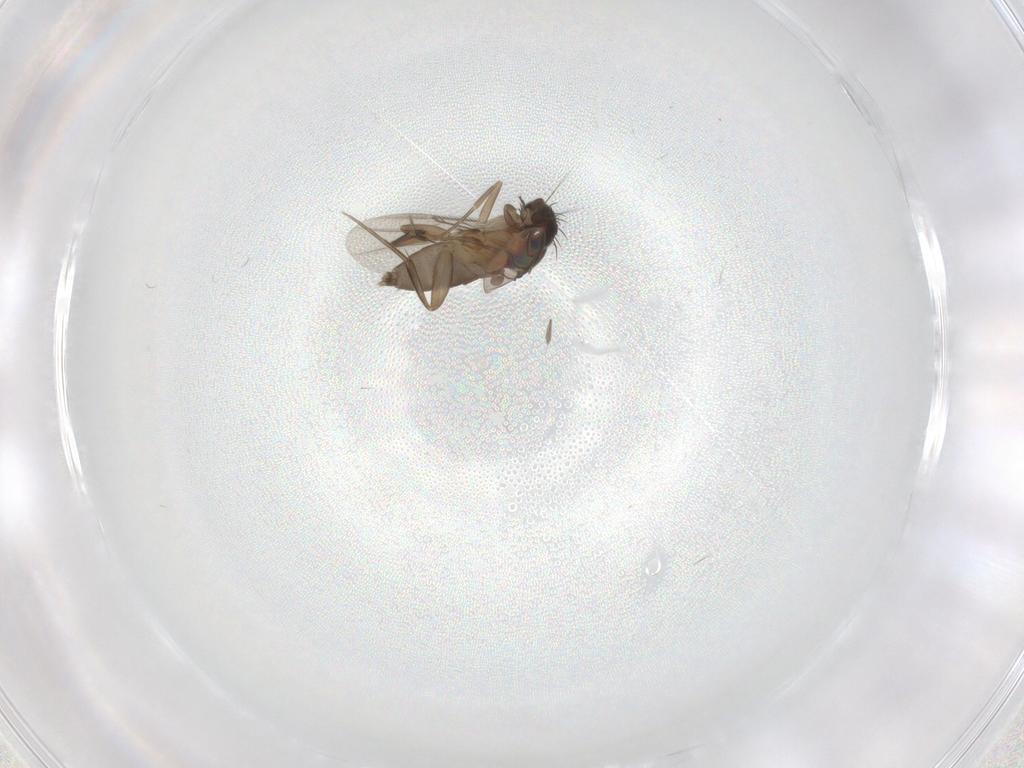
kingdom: Animalia
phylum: Arthropoda
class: Insecta
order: Diptera
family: Phoridae
